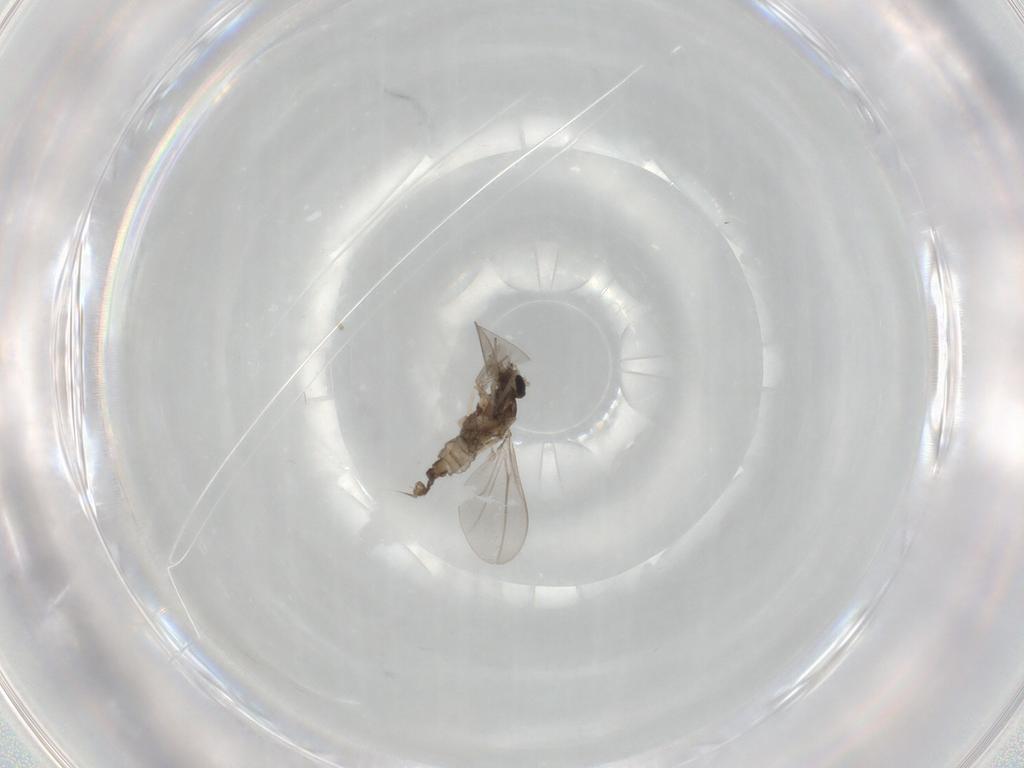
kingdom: Animalia
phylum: Arthropoda
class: Insecta
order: Diptera
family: Cecidomyiidae
